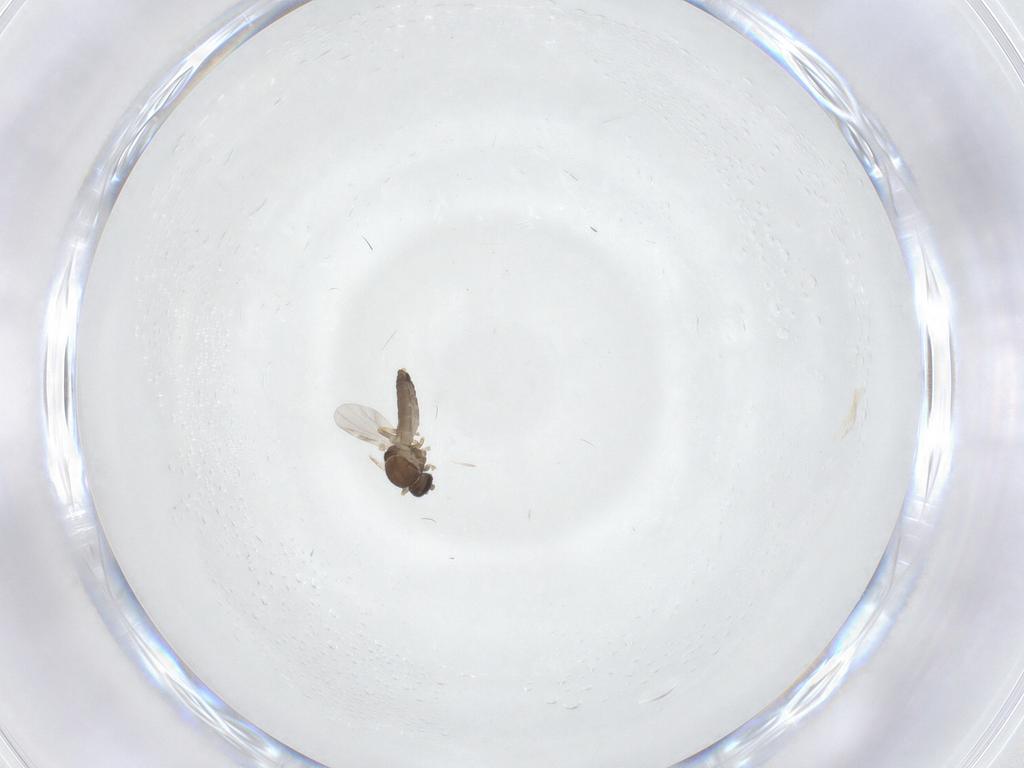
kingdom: Animalia
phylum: Arthropoda
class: Insecta
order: Diptera
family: Ceratopogonidae
